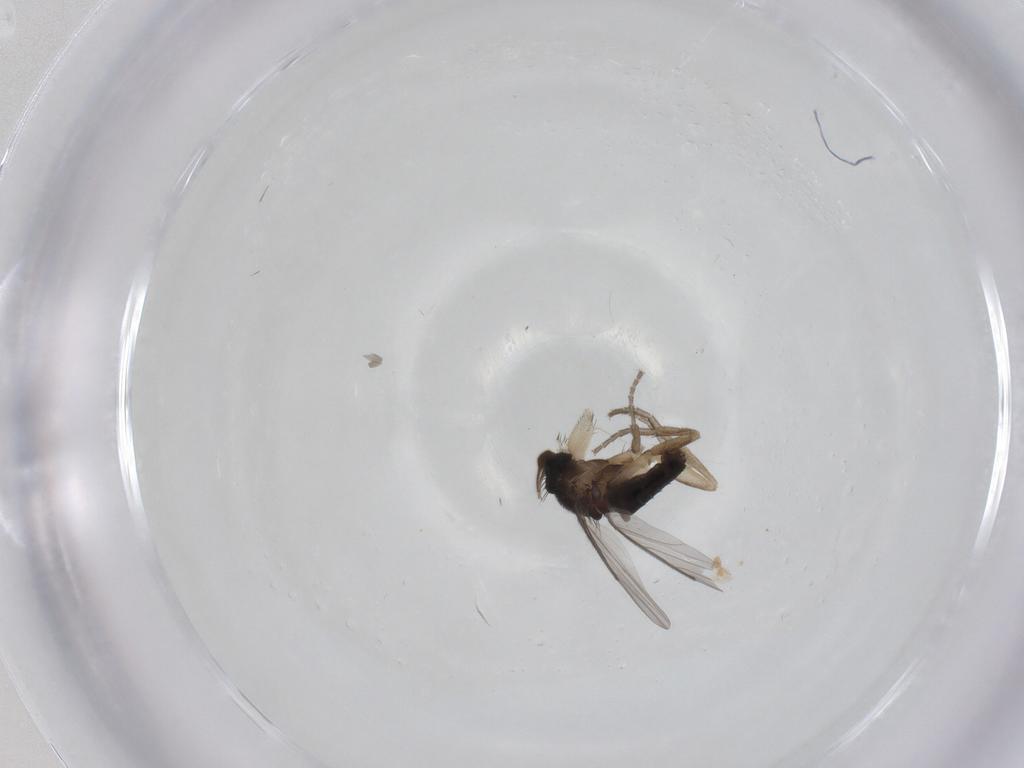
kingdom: Animalia
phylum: Arthropoda
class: Insecta
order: Diptera
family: Phoridae
